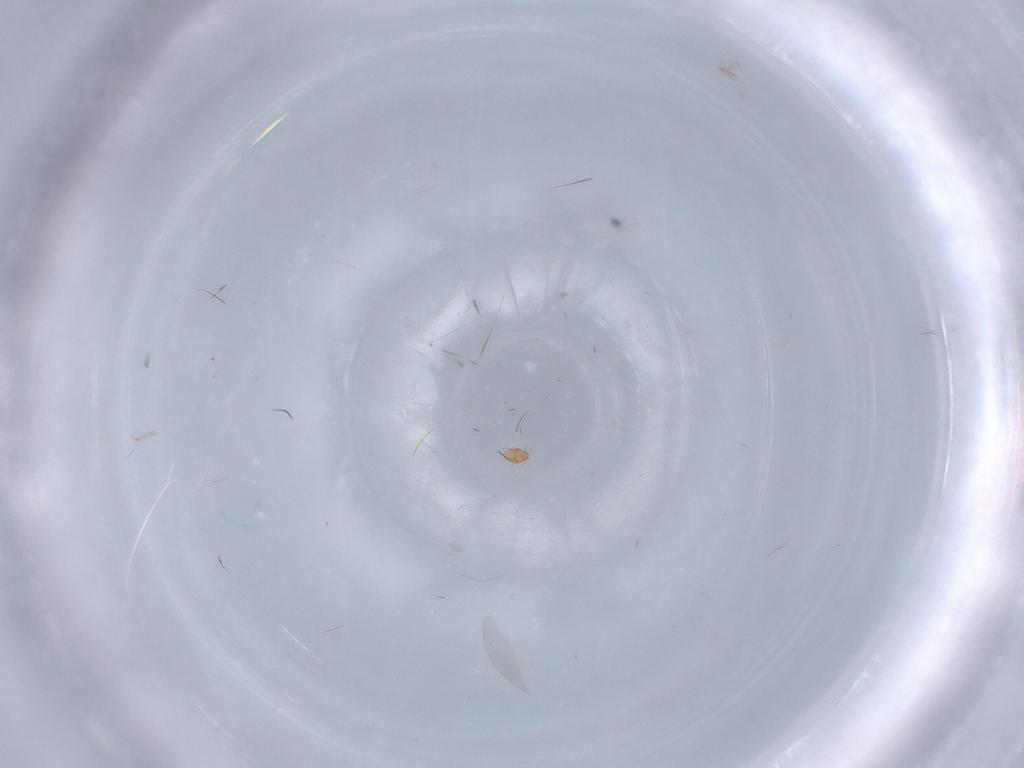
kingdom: Animalia
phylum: Arthropoda
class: Arachnida
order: Trombidiformes
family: Pygmephoridae
